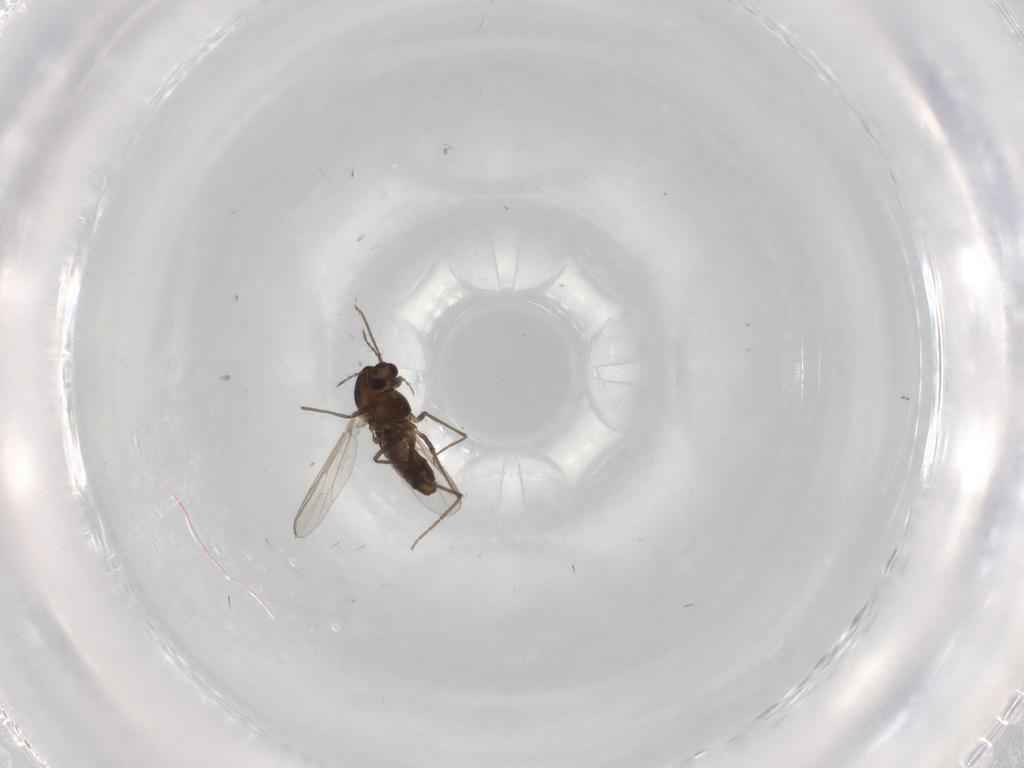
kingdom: Animalia
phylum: Arthropoda
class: Insecta
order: Diptera
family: Chironomidae
